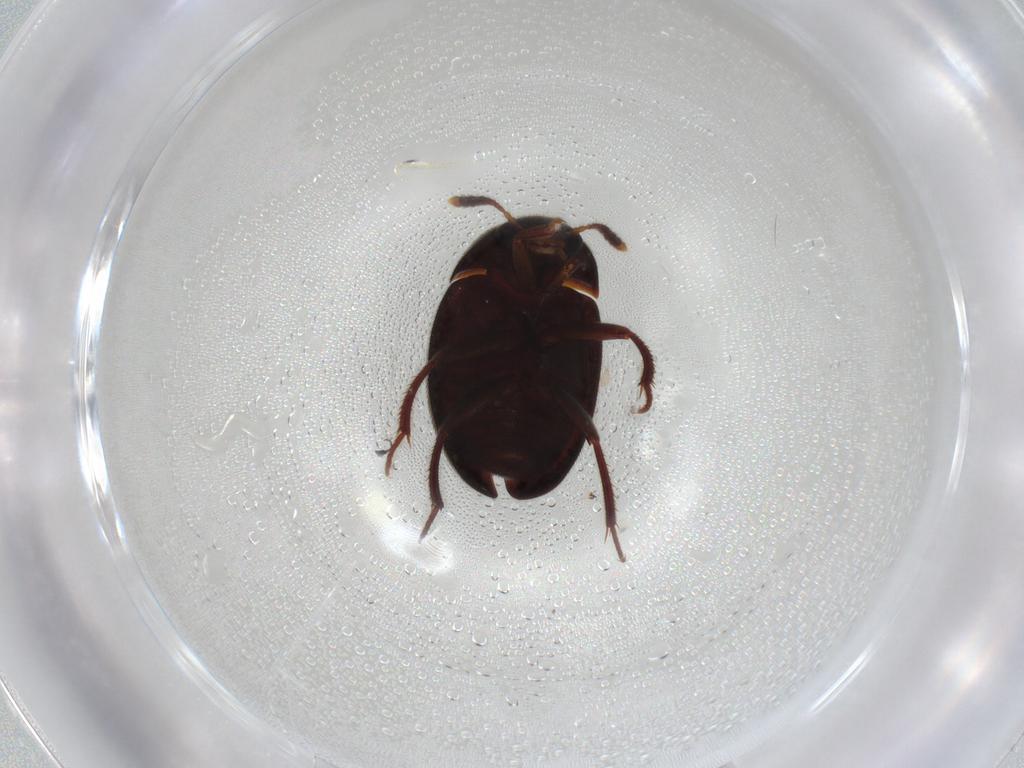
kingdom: Animalia
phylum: Arthropoda
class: Insecta
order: Coleoptera
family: Leiodidae
